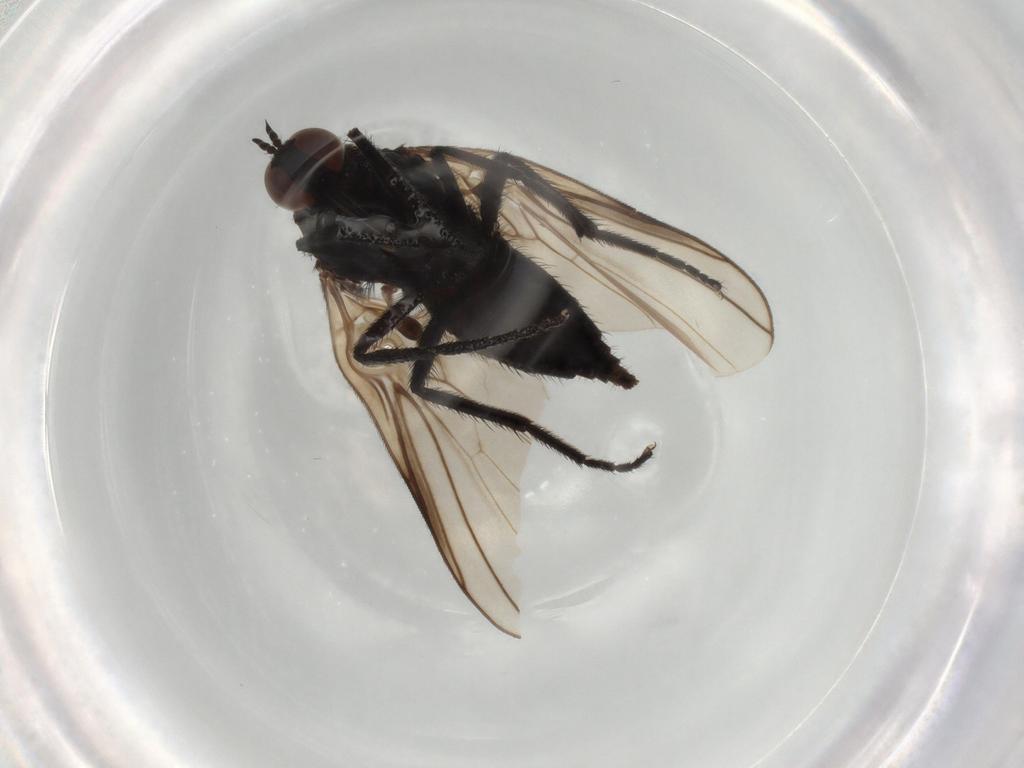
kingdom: Animalia
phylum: Arthropoda
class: Insecta
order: Diptera
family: Empididae
